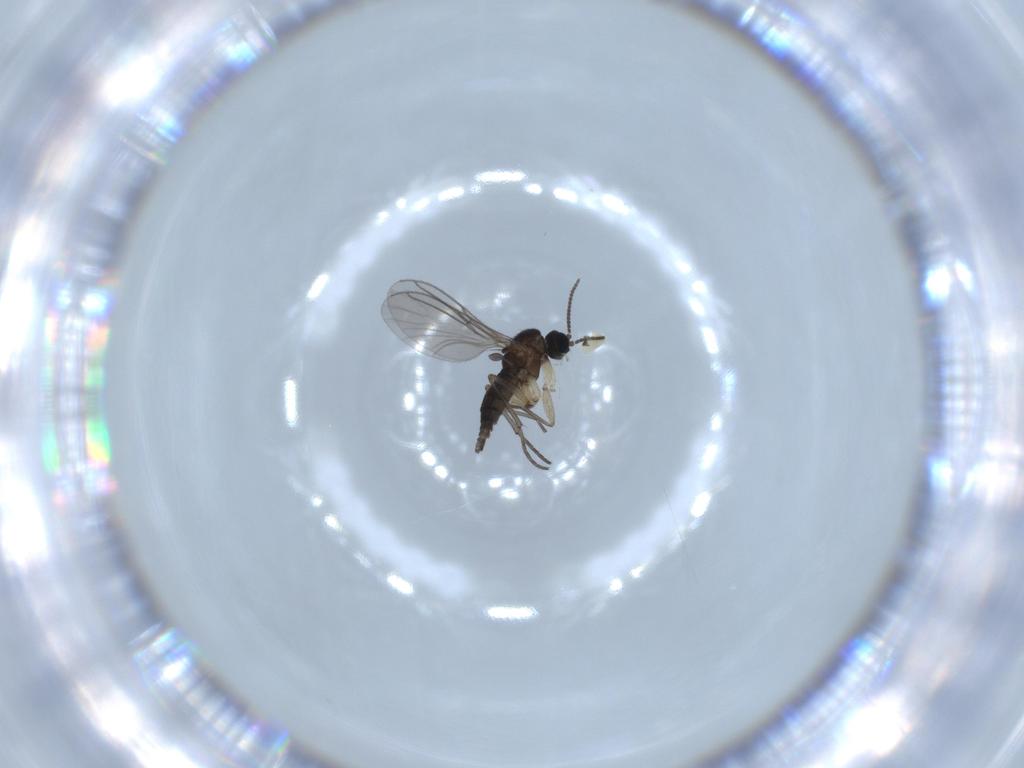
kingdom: Animalia
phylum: Arthropoda
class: Insecta
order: Diptera
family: Sciaridae
